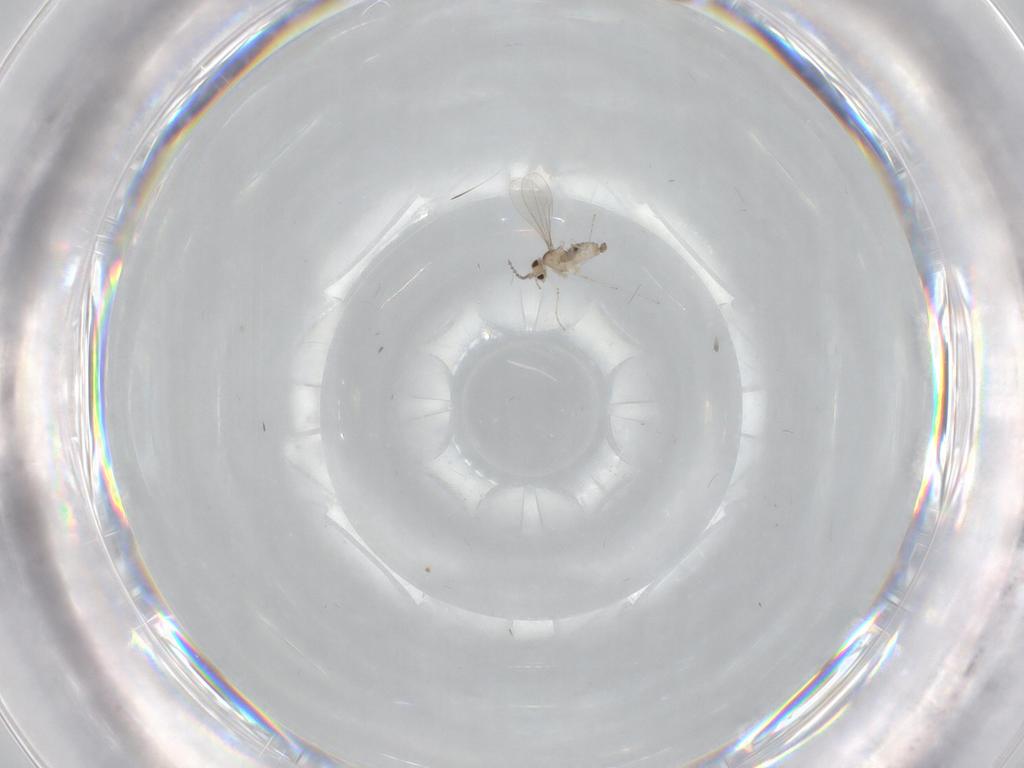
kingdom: Animalia
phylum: Arthropoda
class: Insecta
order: Diptera
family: Cecidomyiidae
